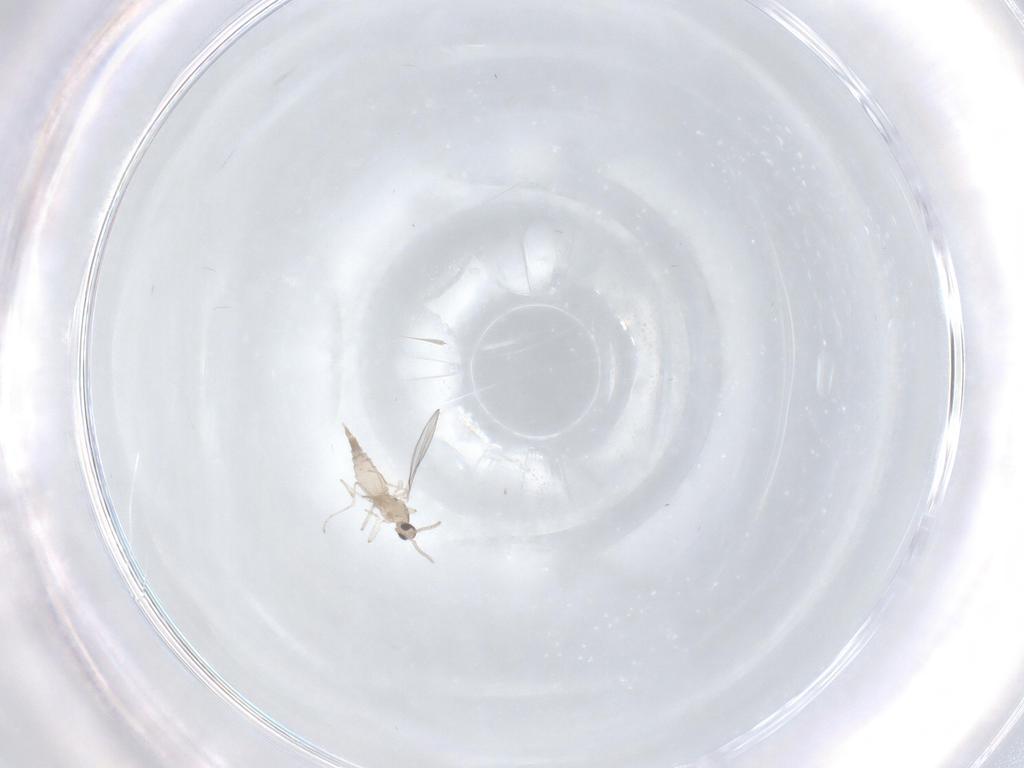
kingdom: Animalia
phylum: Arthropoda
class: Insecta
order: Diptera
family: Cecidomyiidae
